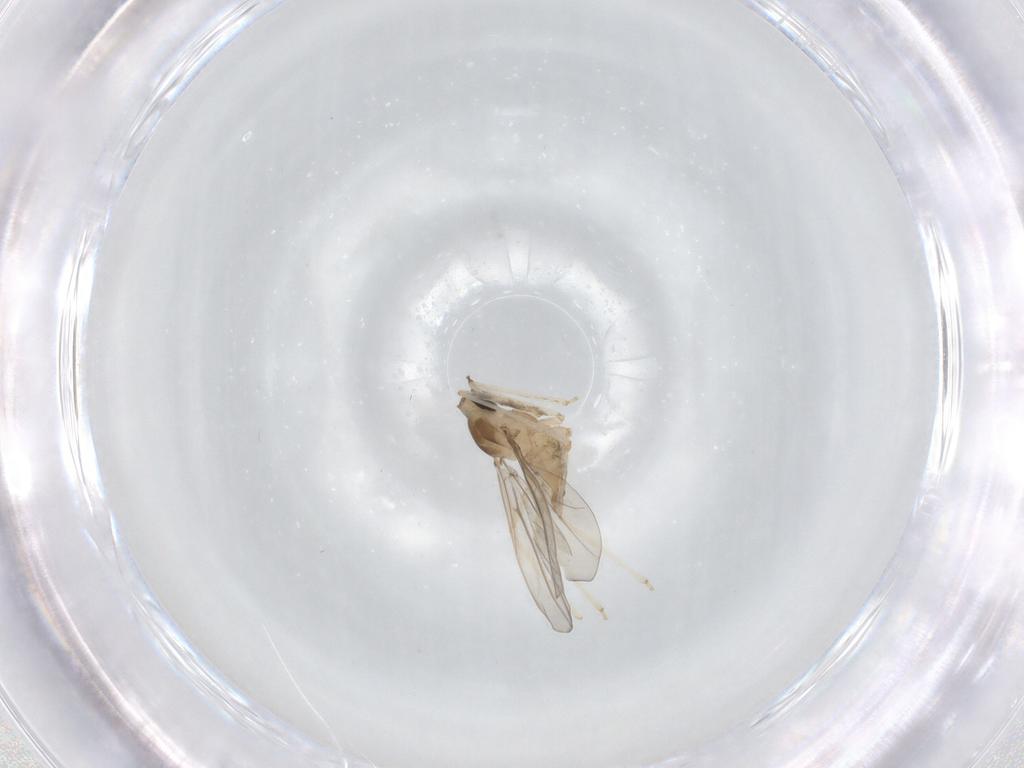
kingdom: Animalia
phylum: Arthropoda
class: Insecta
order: Diptera
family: Cecidomyiidae
